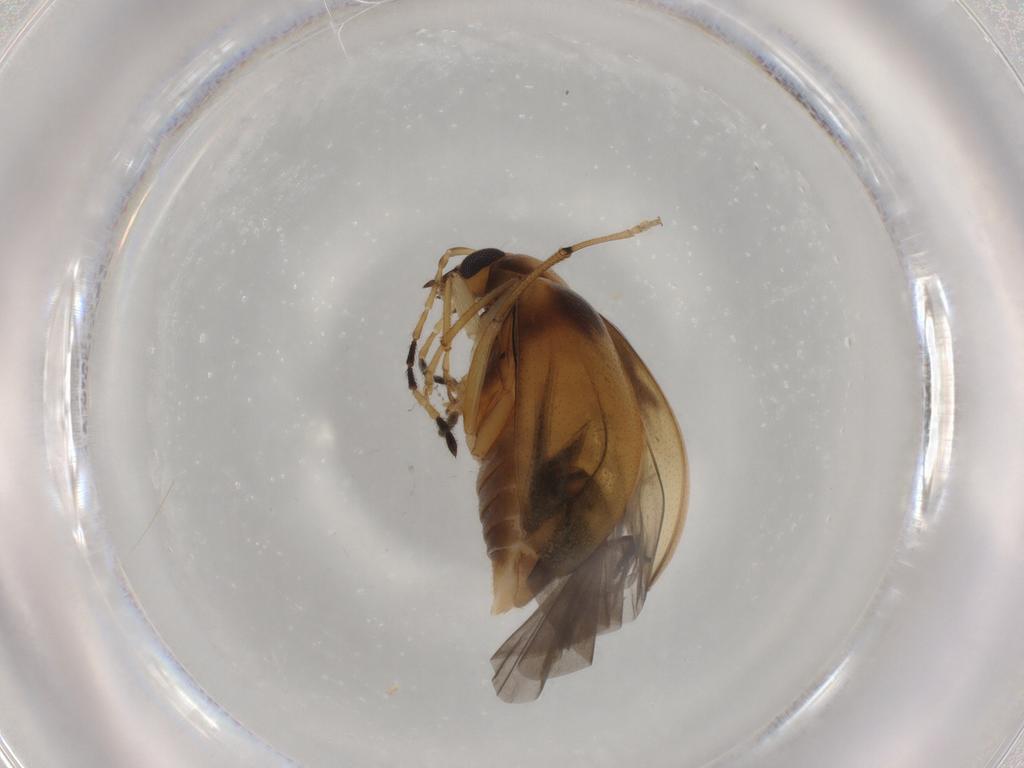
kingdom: Animalia
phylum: Arthropoda
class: Insecta
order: Coleoptera
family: Chrysomelidae
